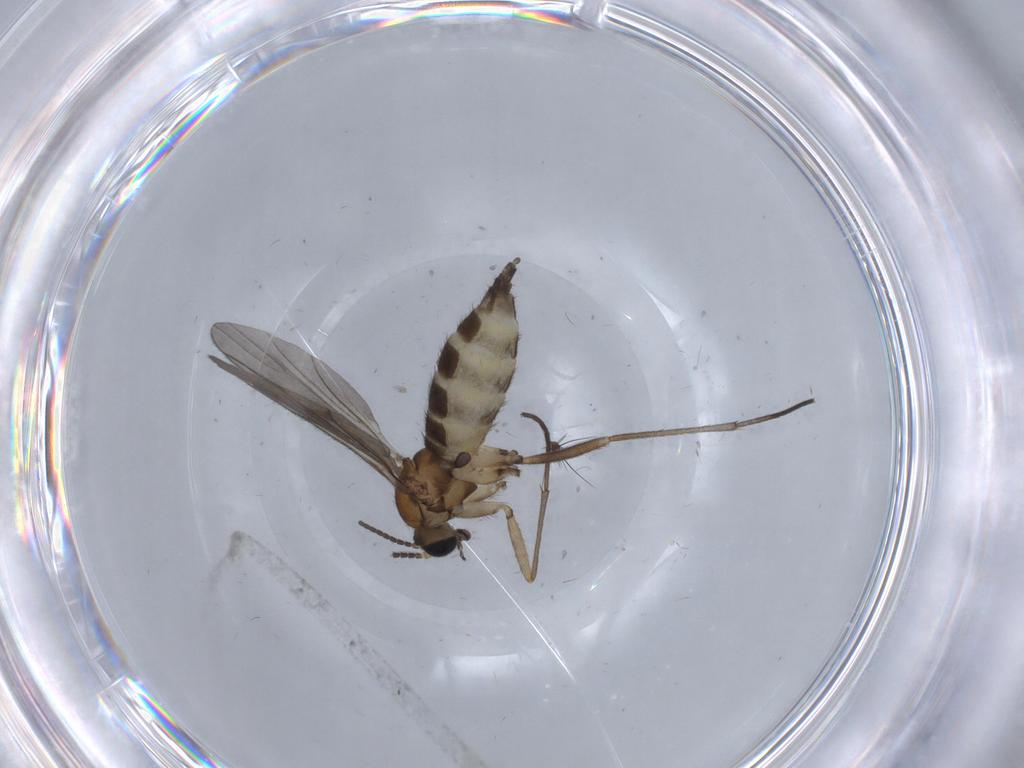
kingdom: Animalia
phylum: Arthropoda
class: Insecta
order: Diptera
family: Sciaridae
